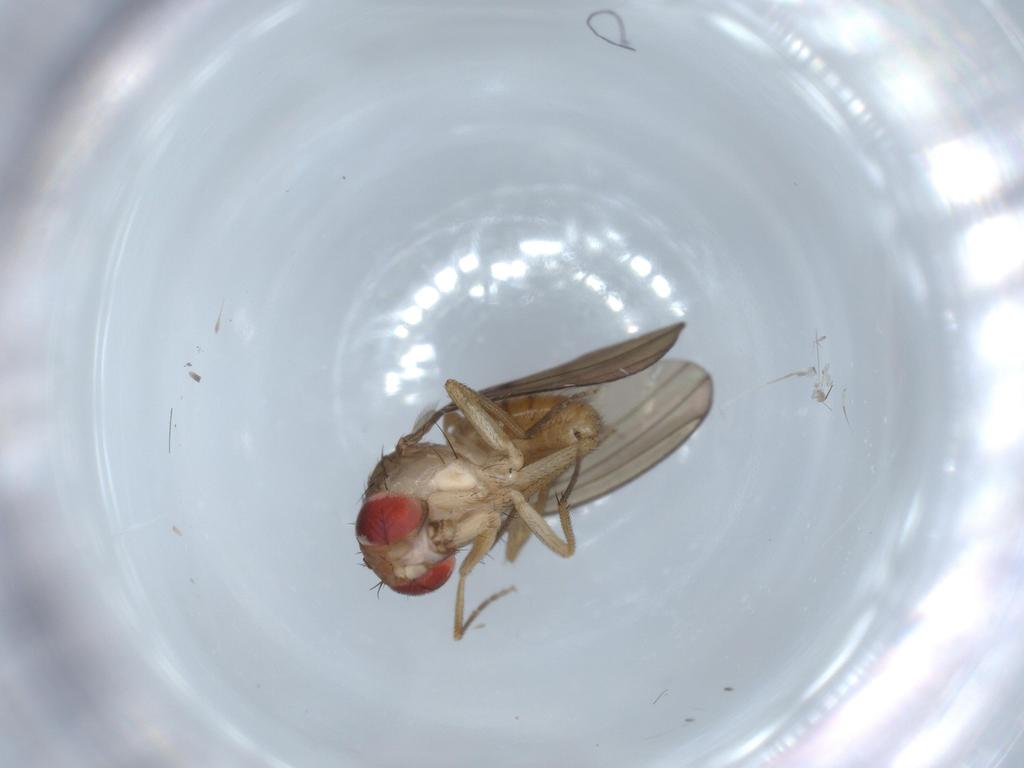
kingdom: Animalia
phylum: Arthropoda
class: Insecta
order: Diptera
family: Drosophilidae
